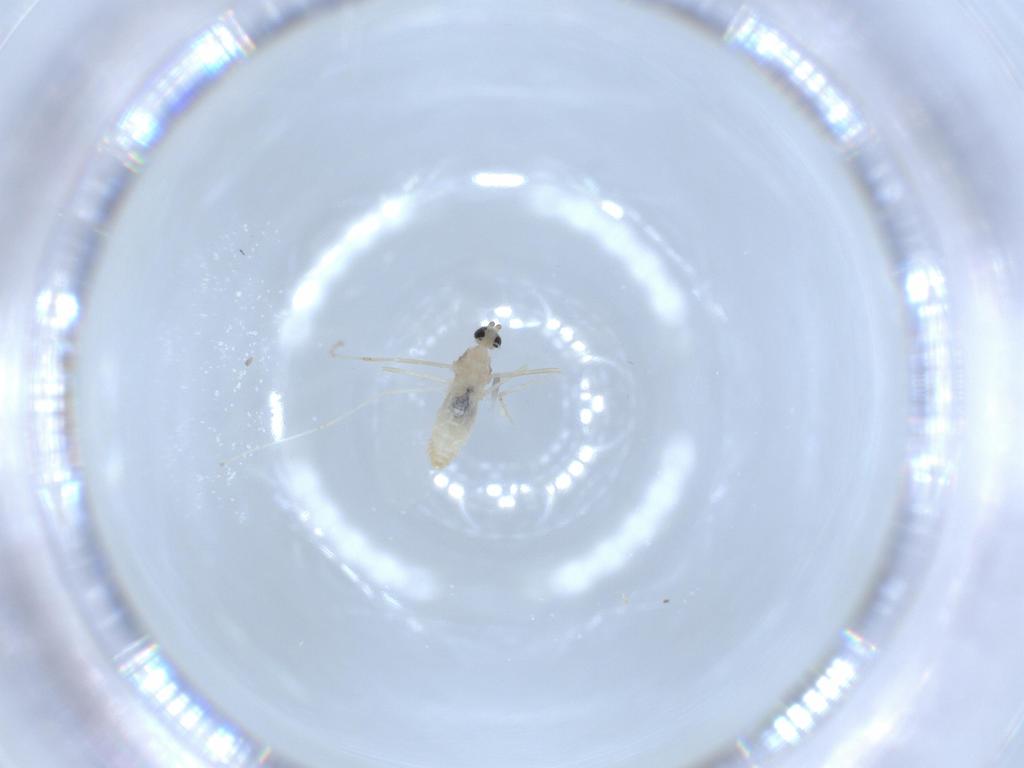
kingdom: Animalia
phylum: Arthropoda
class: Insecta
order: Diptera
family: Cecidomyiidae
